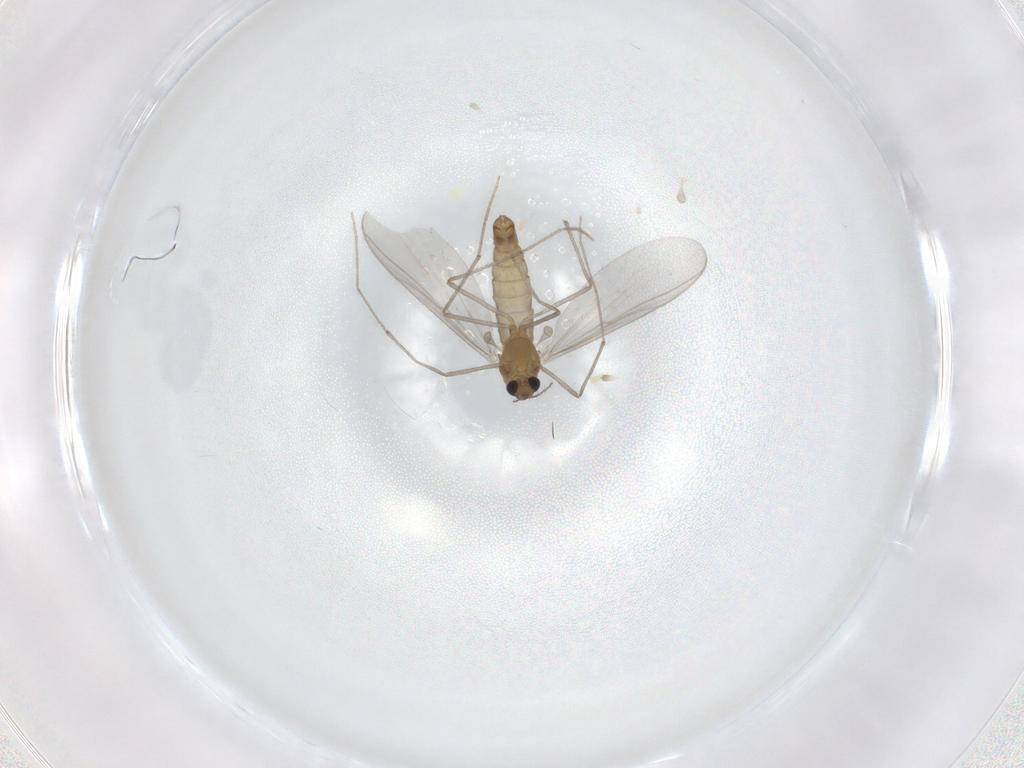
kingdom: Animalia
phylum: Arthropoda
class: Insecta
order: Diptera
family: Chironomidae
